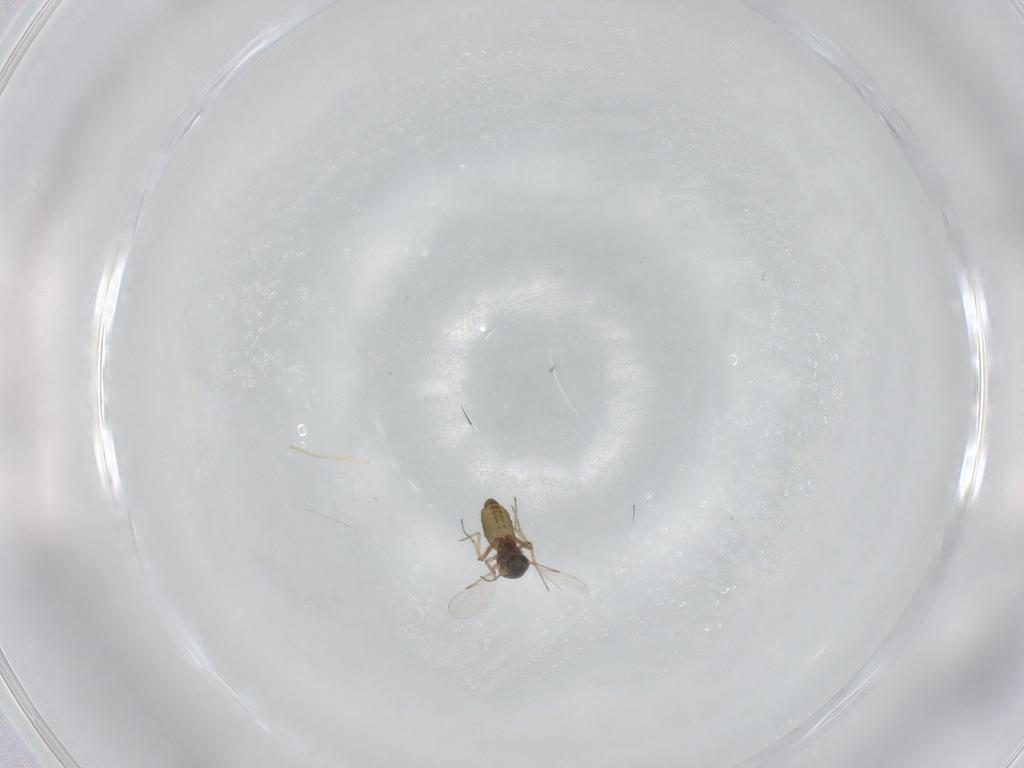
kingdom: Animalia
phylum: Arthropoda
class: Insecta
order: Diptera
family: Ceratopogonidae
